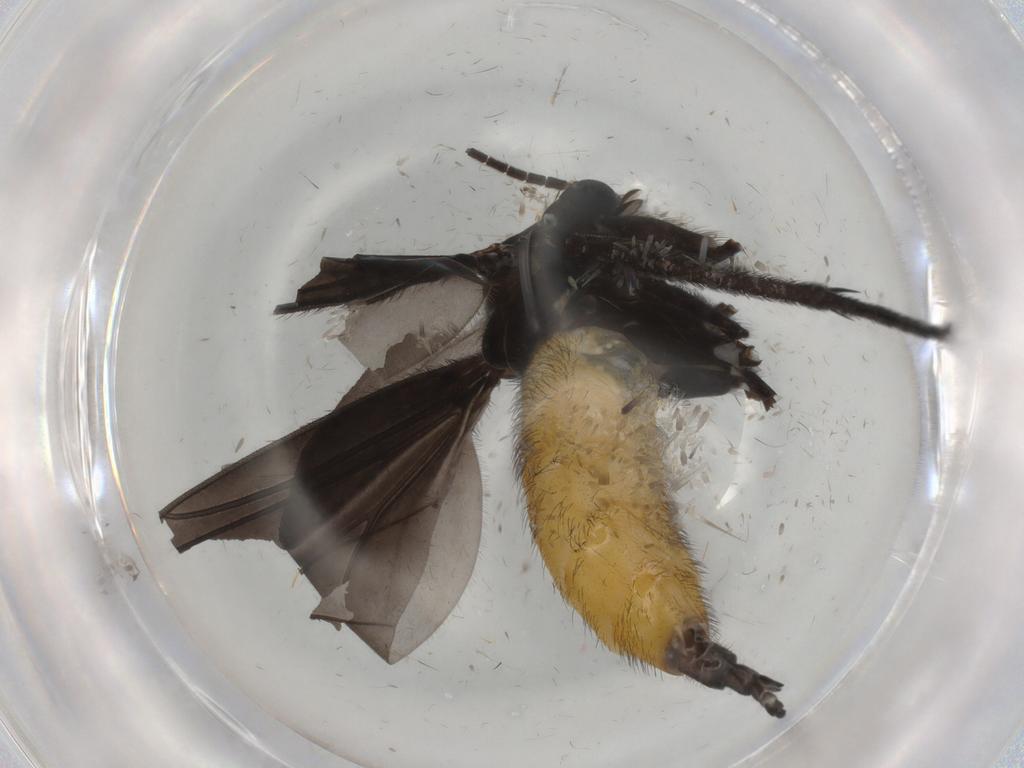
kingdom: Animalia
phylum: Arthropoda
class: Insecta
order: Diptera
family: Sciaridae
